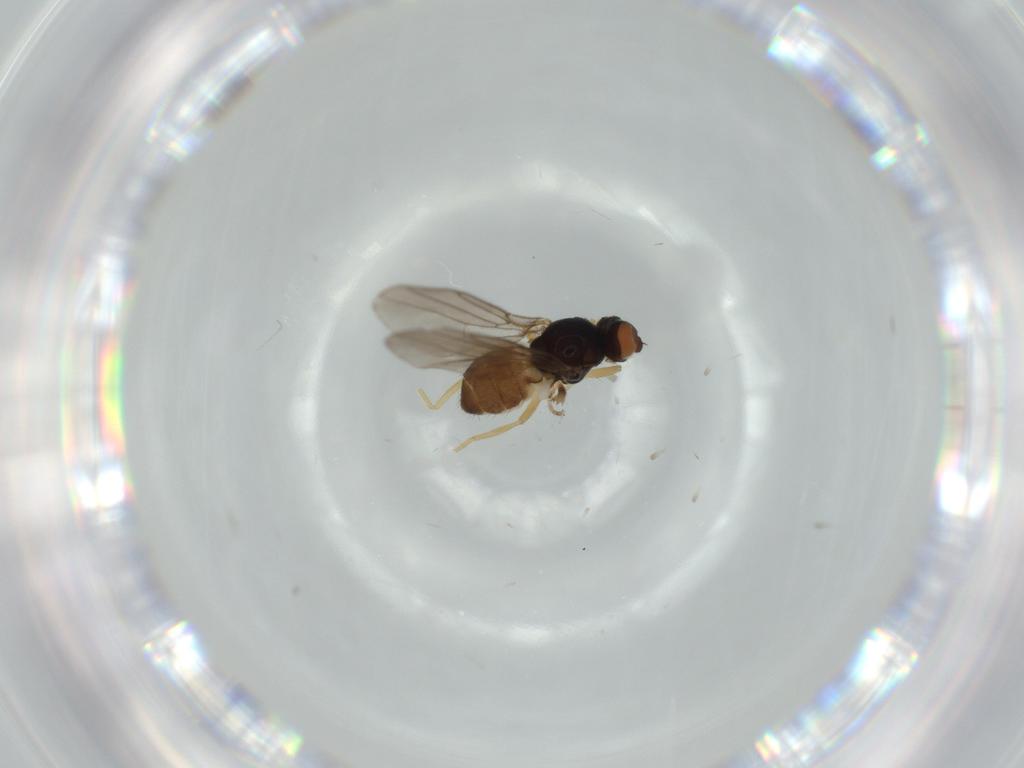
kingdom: Animalia
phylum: Arthropoda
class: Insecta
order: Diptera
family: Chloropidae
